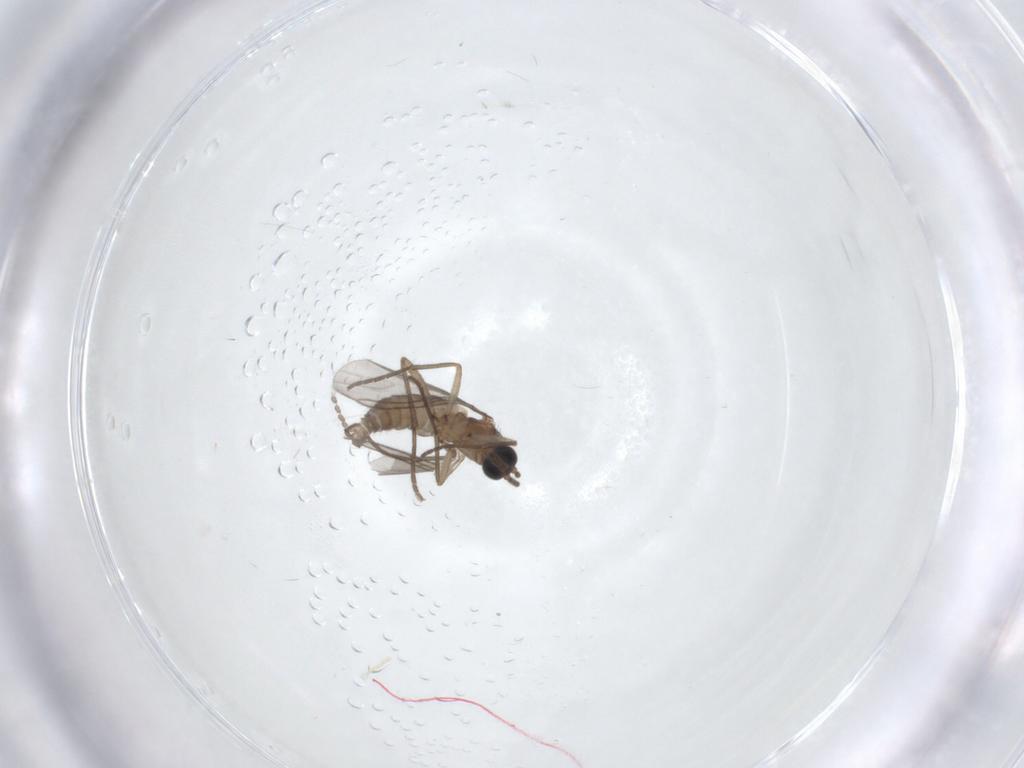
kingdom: Animalia
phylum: Arthropoda
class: Insecta
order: Diptera
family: Sciaridae
